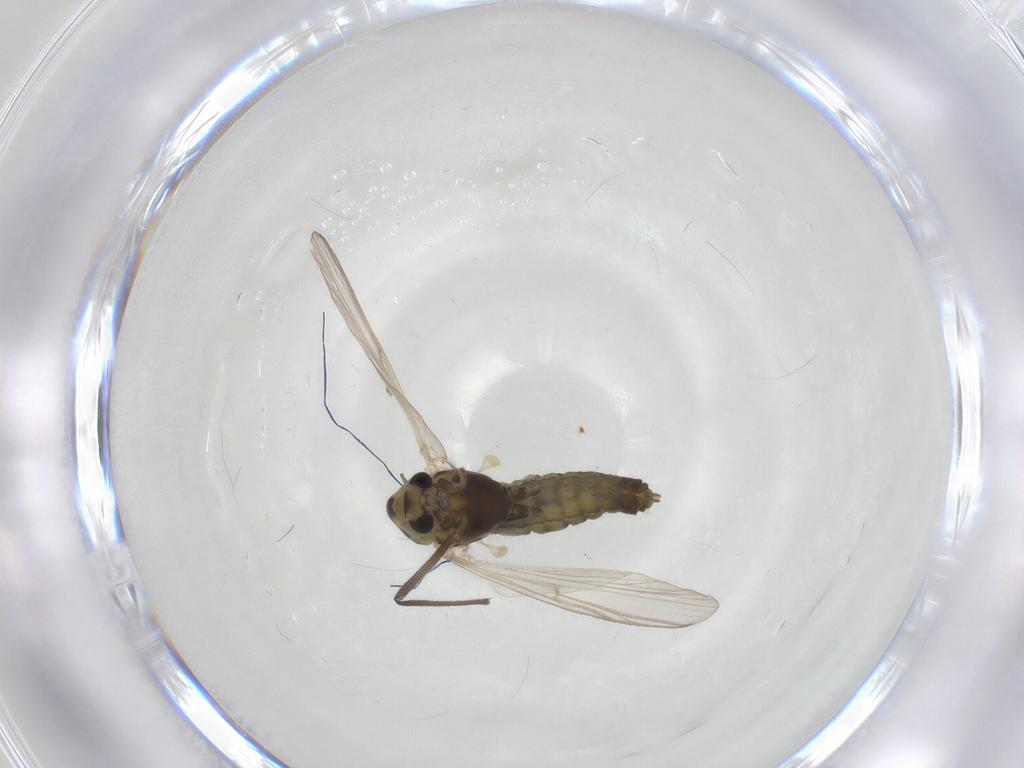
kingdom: Animalia
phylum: Arthropoda
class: Insecta
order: Diptera
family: Chironomidae
